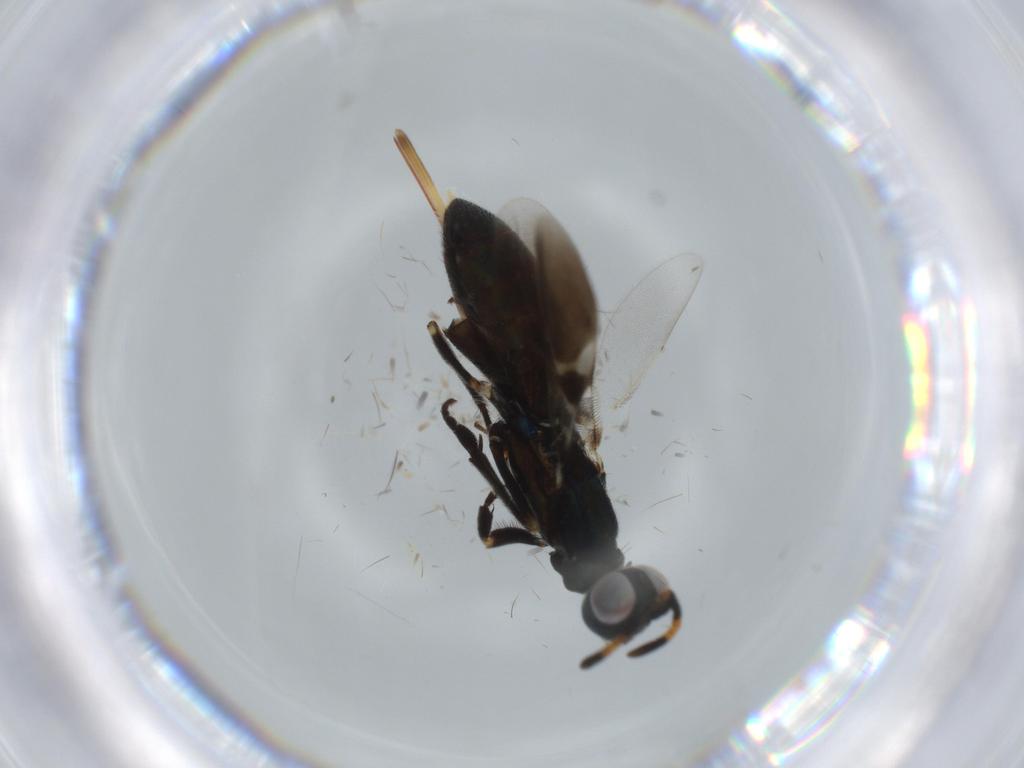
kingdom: Animalia
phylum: Arthropoda
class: Insecta
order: Hymenoptera
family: Eupelmidae
